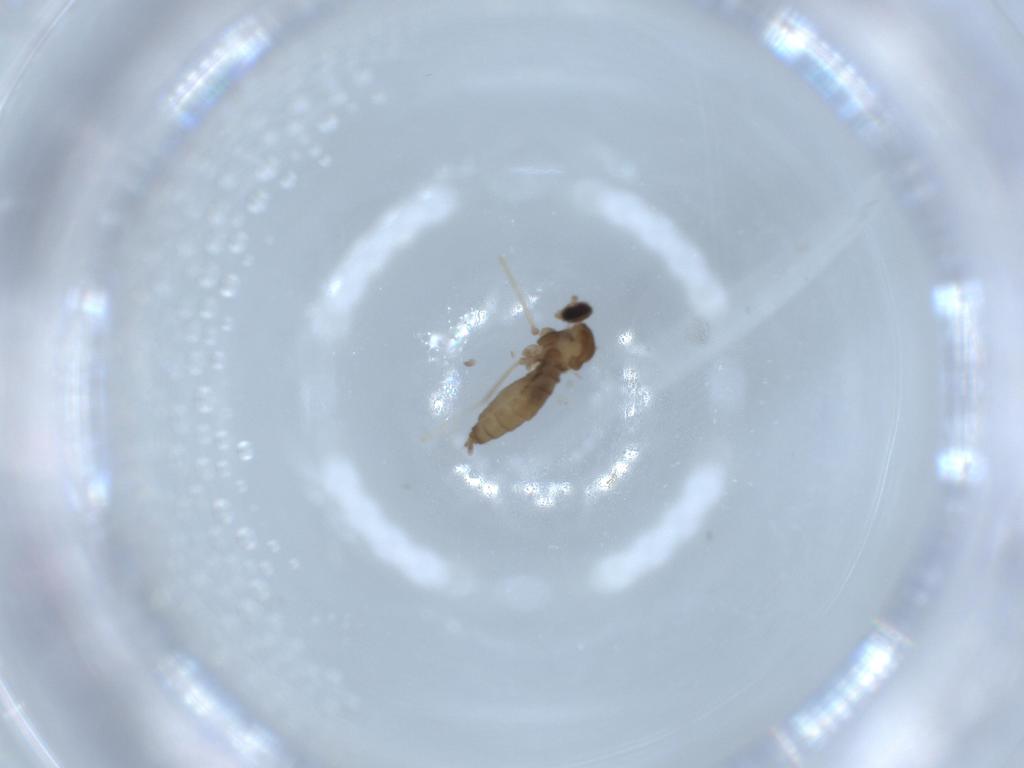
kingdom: Animalia
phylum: Arthropoda
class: Insecta
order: Diptera
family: Cecidomyiidae
